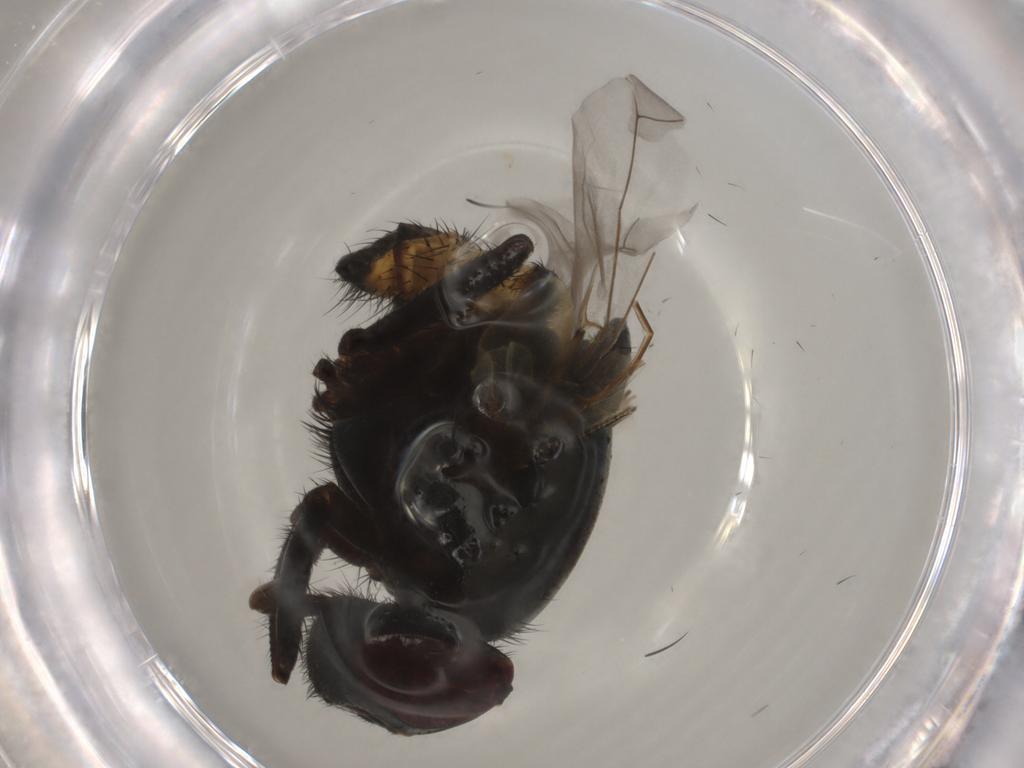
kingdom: Animalia
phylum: Arthropoda
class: Insecta
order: Diptera
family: Muscidae
